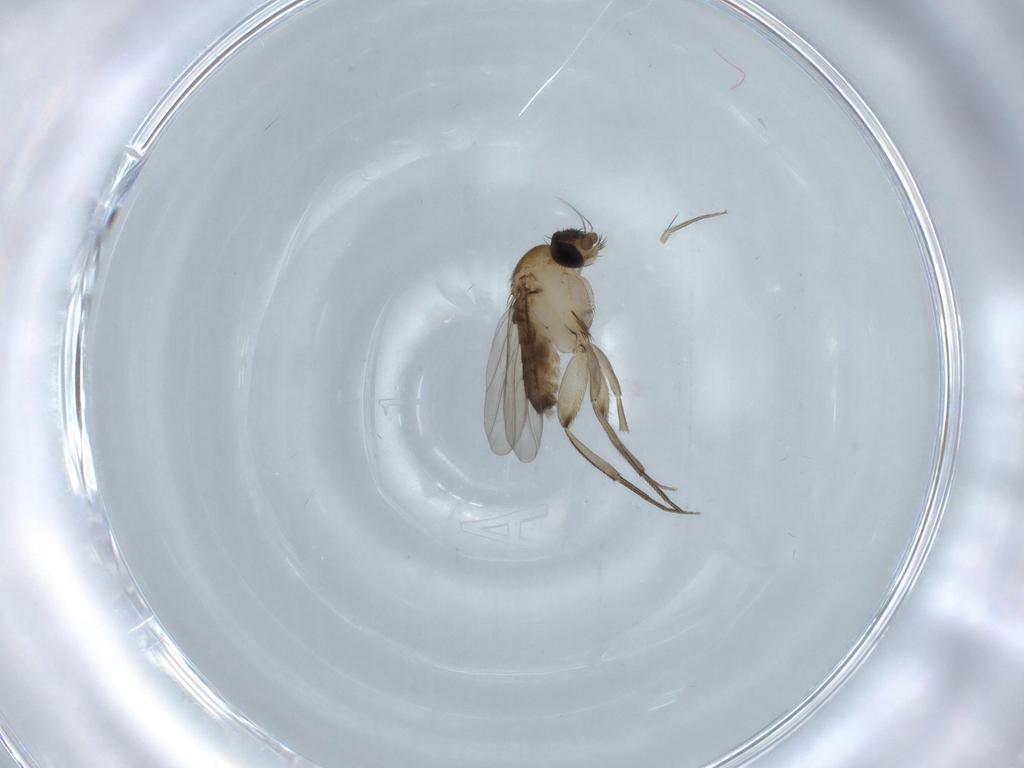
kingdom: Animalia
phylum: Arthropoda
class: Insecta
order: Diptera
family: Phoridae
